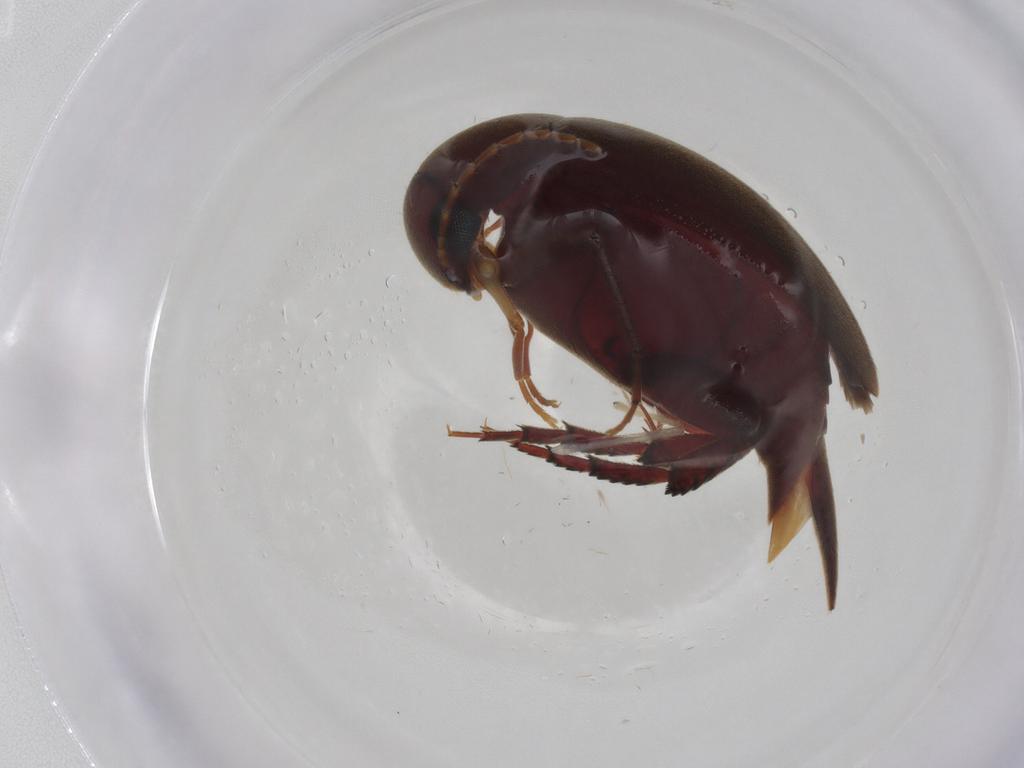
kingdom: Animalia
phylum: Arthropoda
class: Insecta
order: Coleoptera
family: Mordellidae
